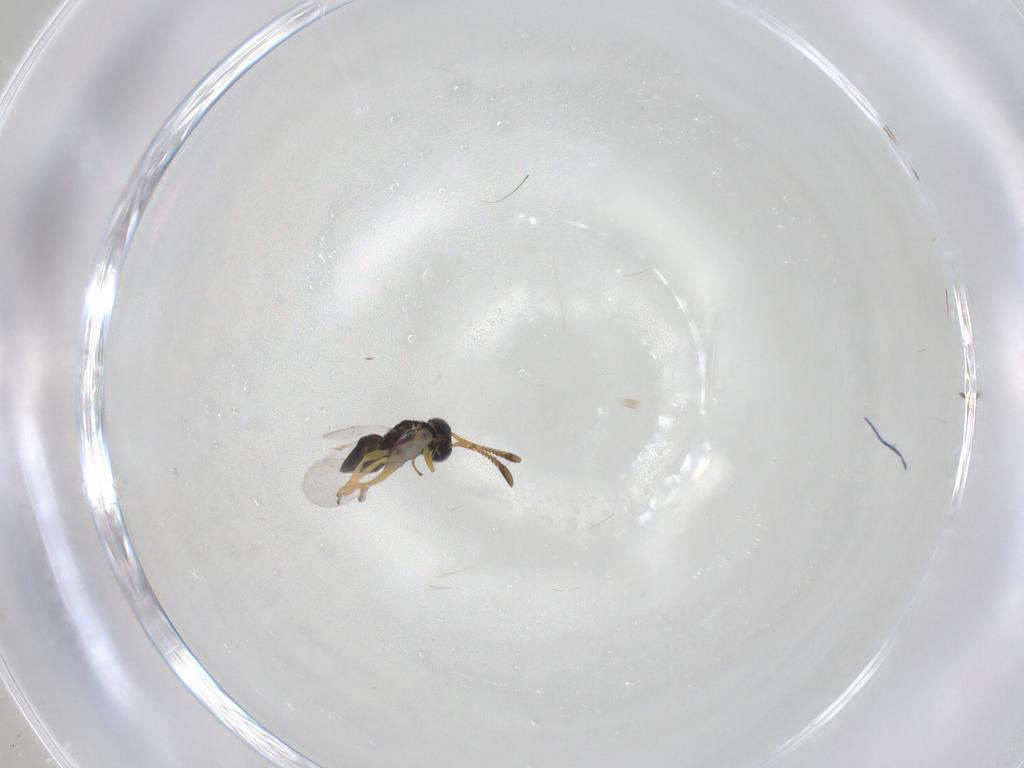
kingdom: Animalia
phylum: Arthropoda
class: Insecta
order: Hymenoptera
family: Encyrtidae
